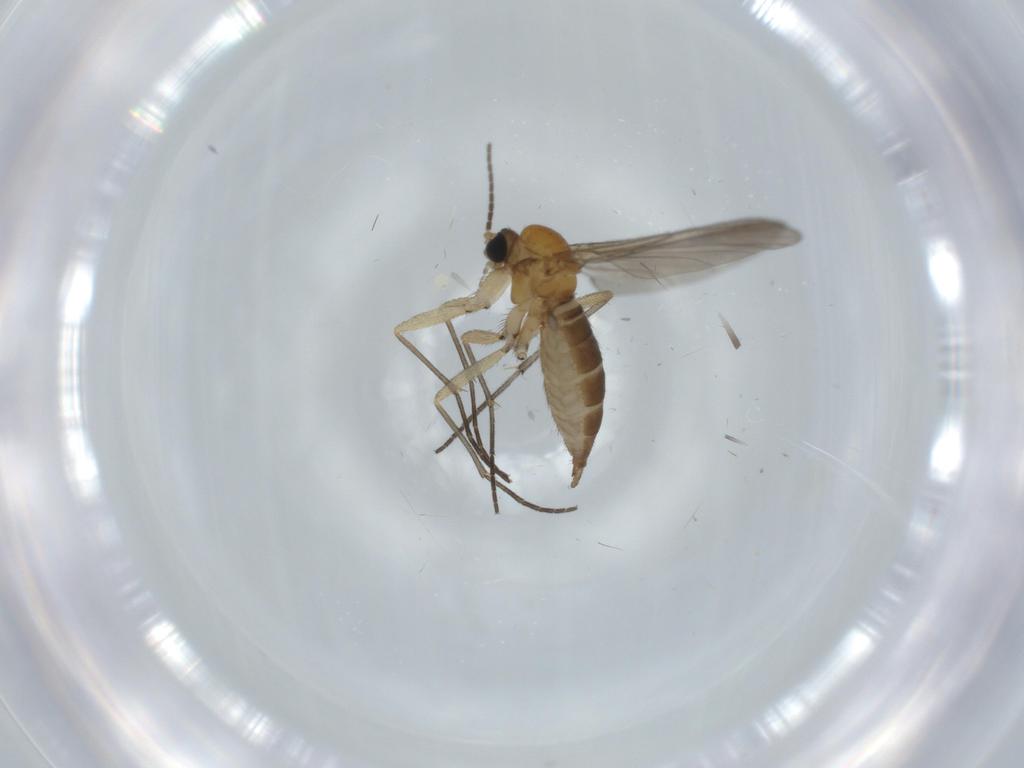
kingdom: Animalia
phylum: Arthropoda
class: Insecta
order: Diptera
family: Sciaridae
